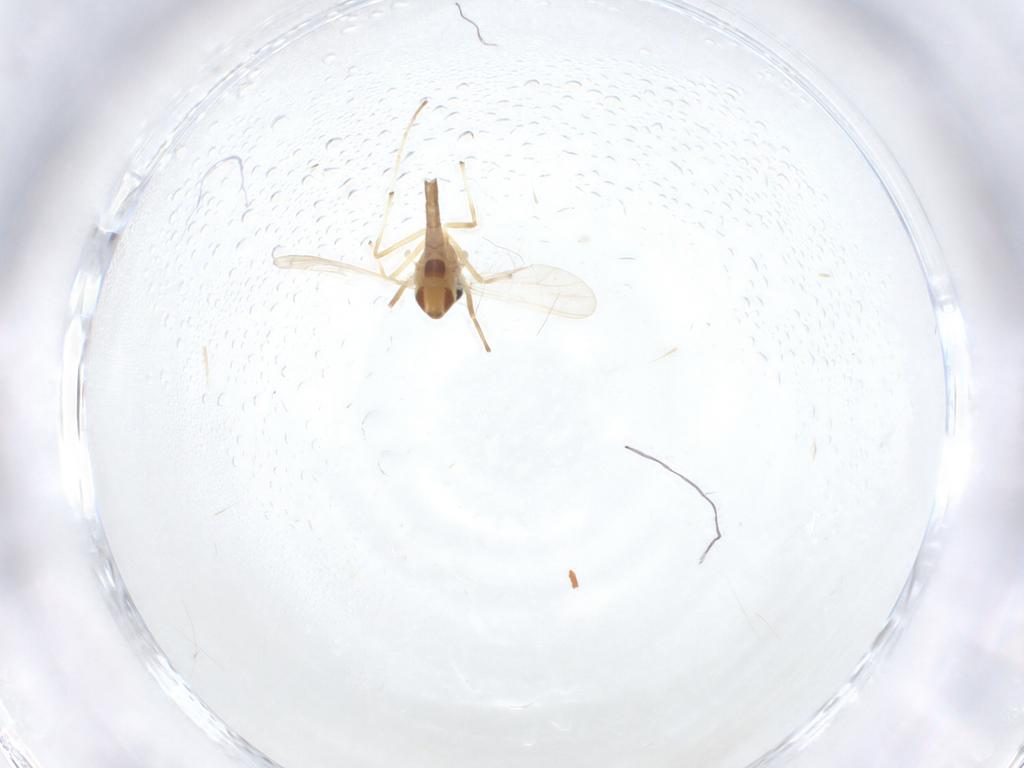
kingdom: Animalia
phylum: Arthropoda
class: Insecta
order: Diptera
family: Chironomidae
